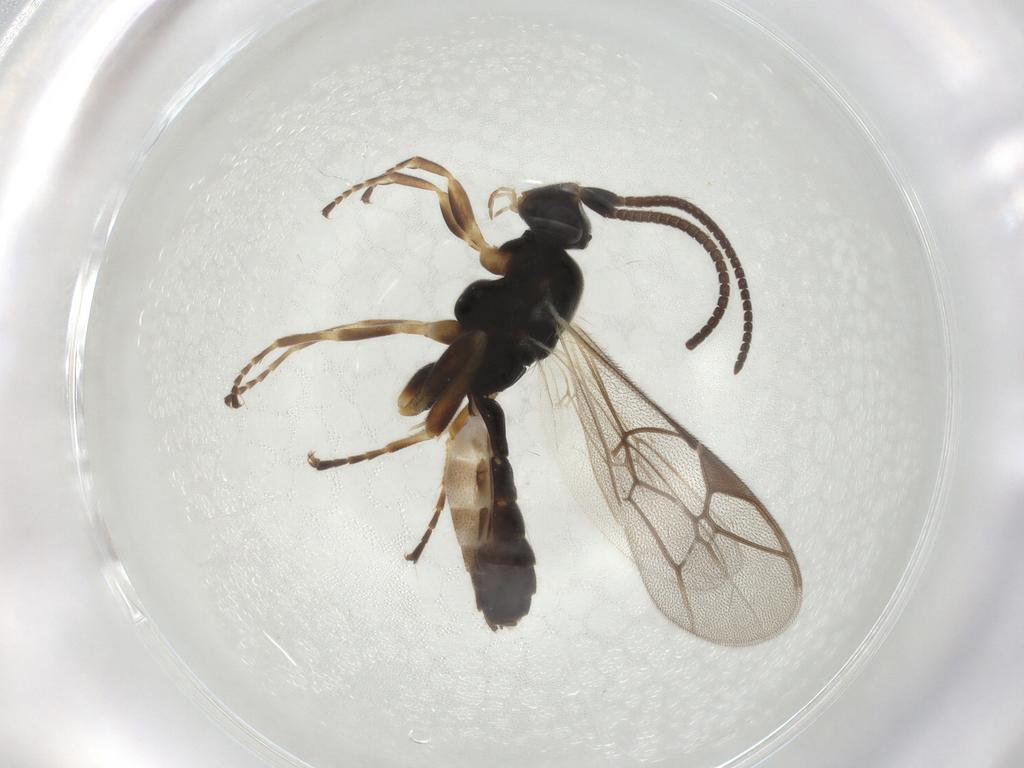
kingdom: Animalia
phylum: Arthropoda
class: Insecta
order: Hymenoptera
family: Ichneumonidae
